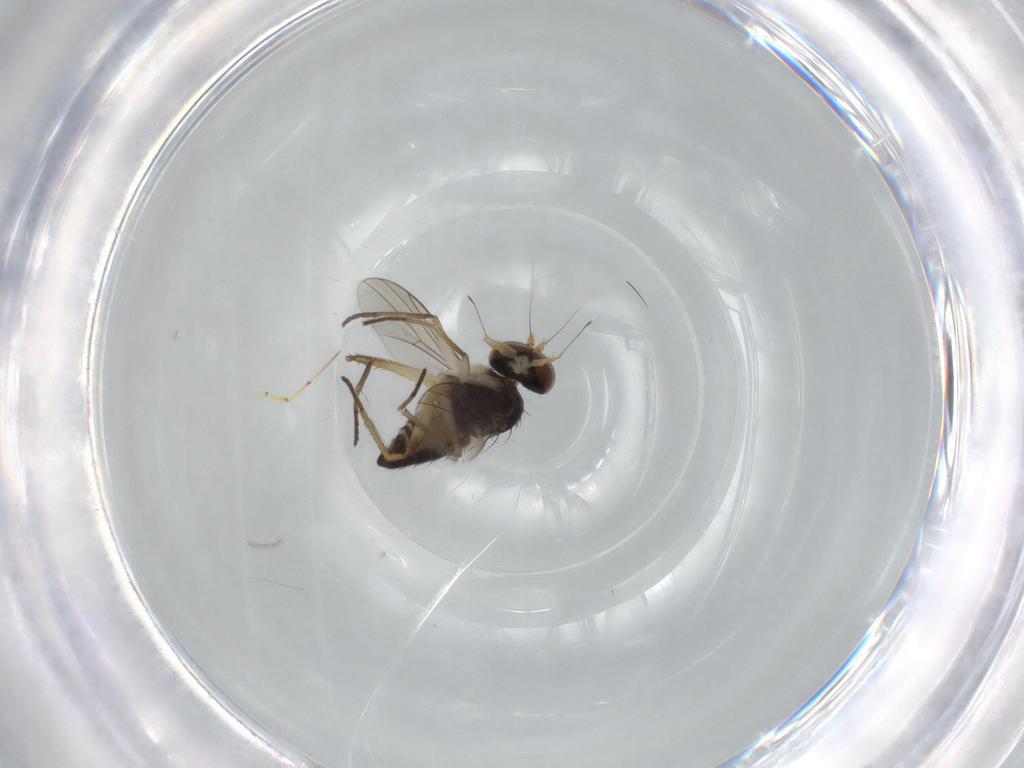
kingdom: Animalia
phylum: Arthropoda
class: Insecta
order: Diptera
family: Dolichopodidae
